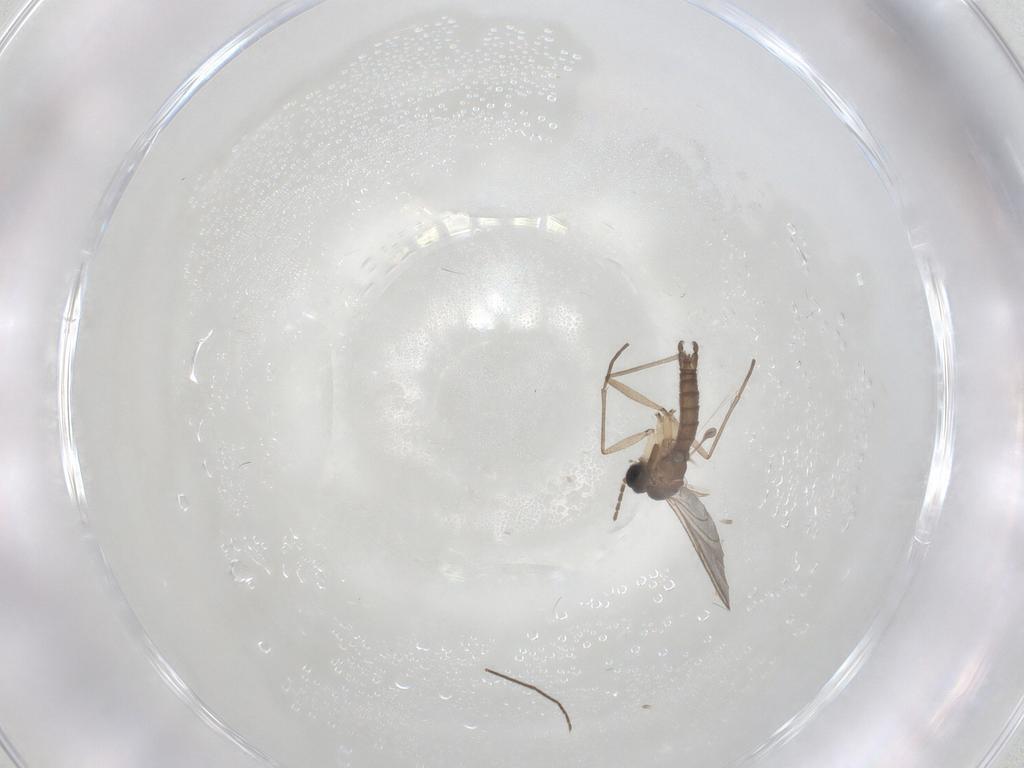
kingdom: Animalia
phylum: Arthropoda
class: Insecta
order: Diptera
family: Sciaridae
